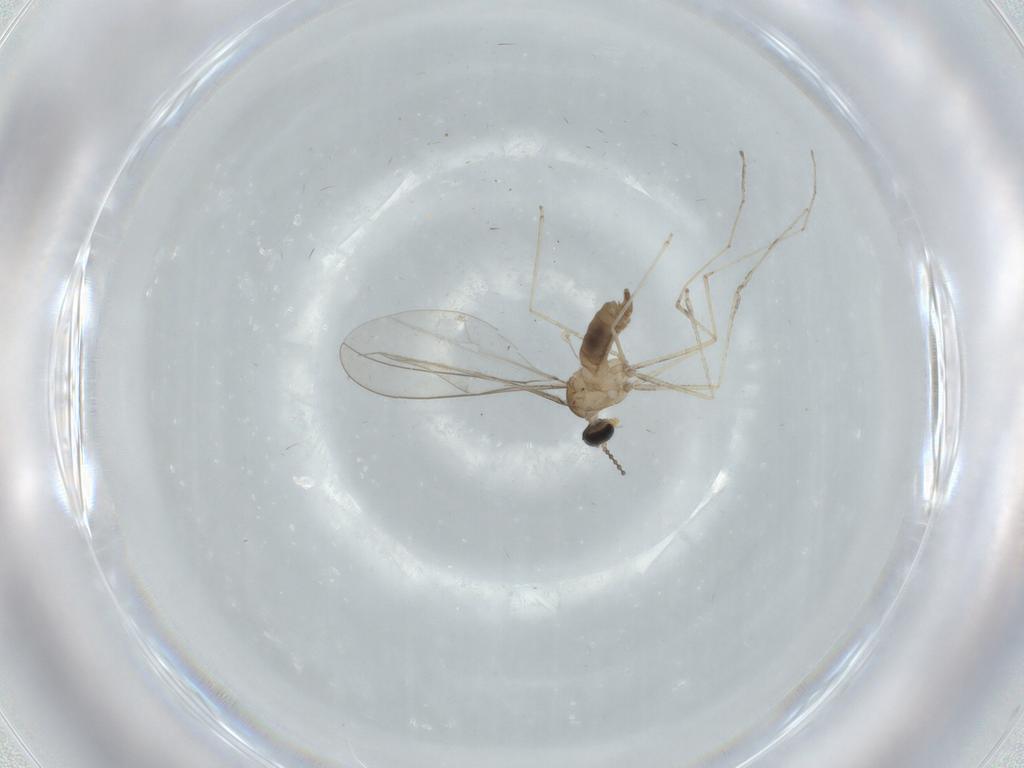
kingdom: Animalia
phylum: Arthropoda
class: Insecta
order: Diptera
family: Cecidomyiidae
